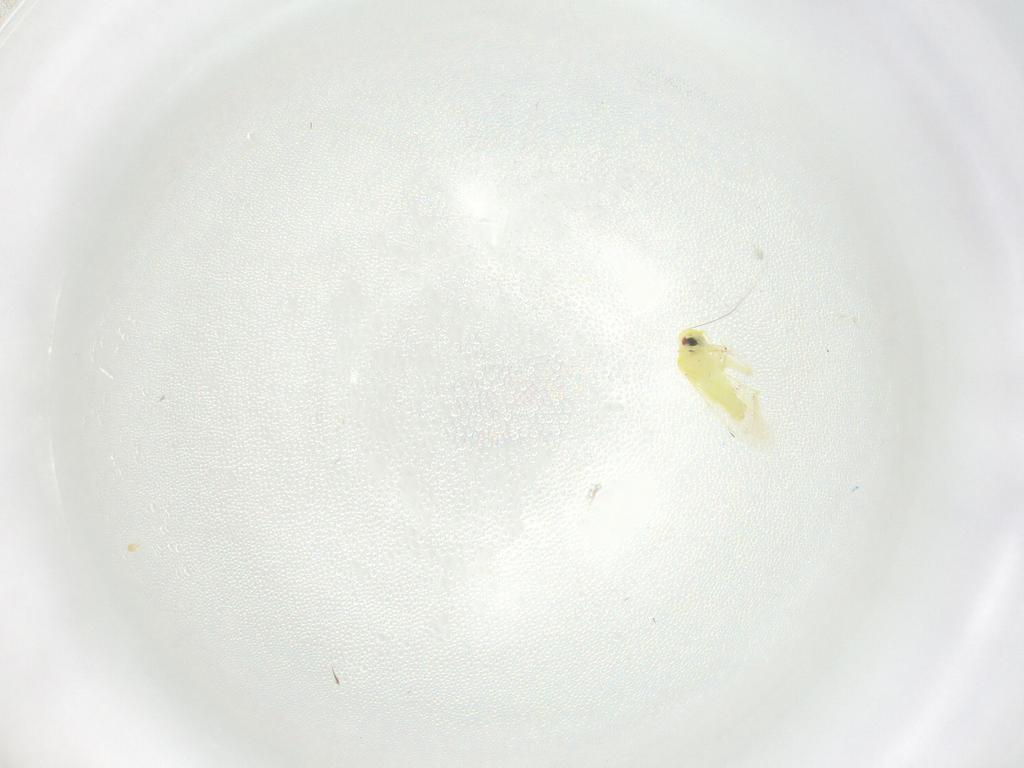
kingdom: Animalia
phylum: Arthropoda
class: Insecta
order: Hemiptera
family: Aleyrodidae
